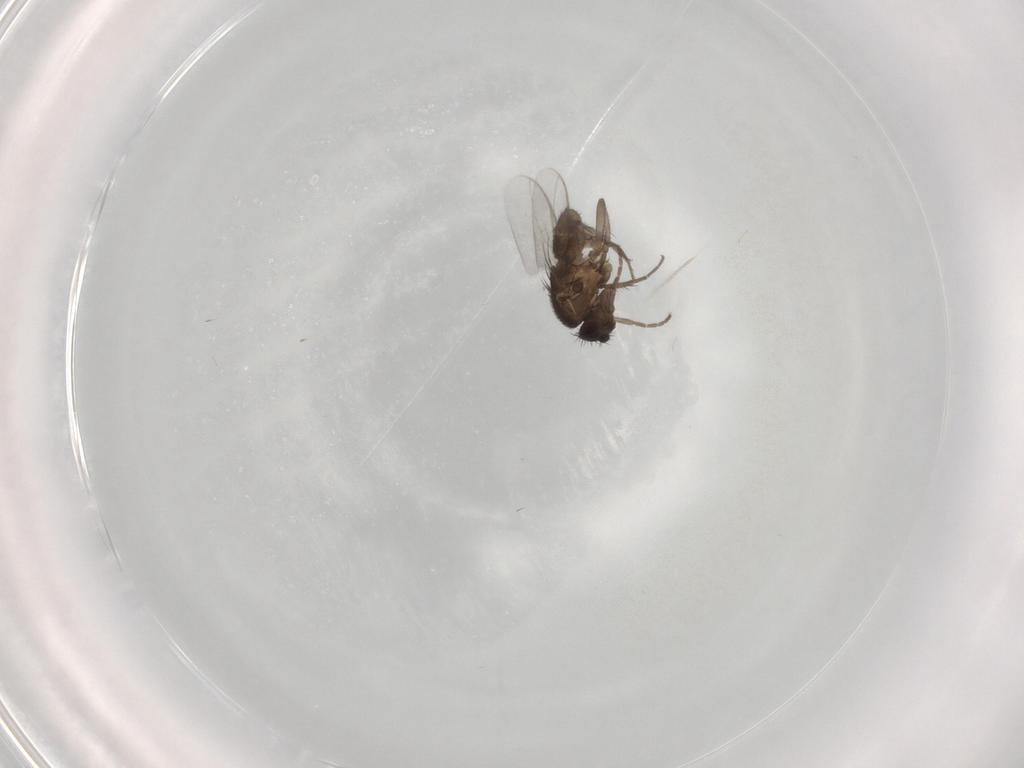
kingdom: Animalia
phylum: Arthropoda
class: Insecta
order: Diptera
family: Sphaeroceridae
